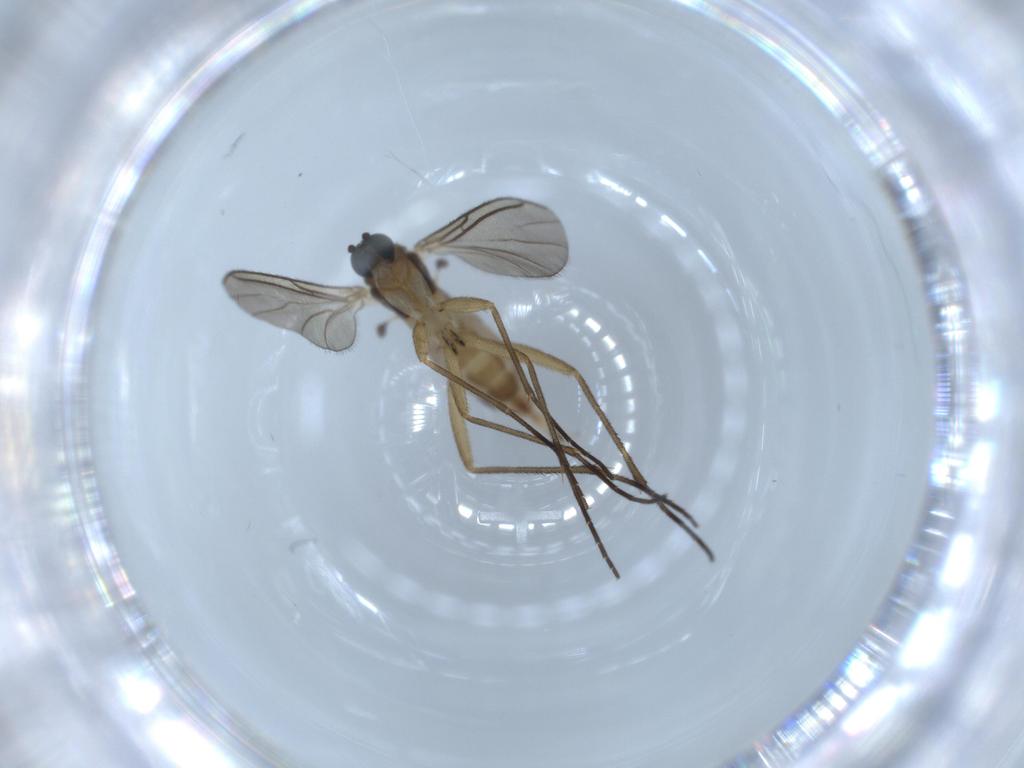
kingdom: Animalia
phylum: Arthropoda
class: Insecta
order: Diptera
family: Sciaridae
